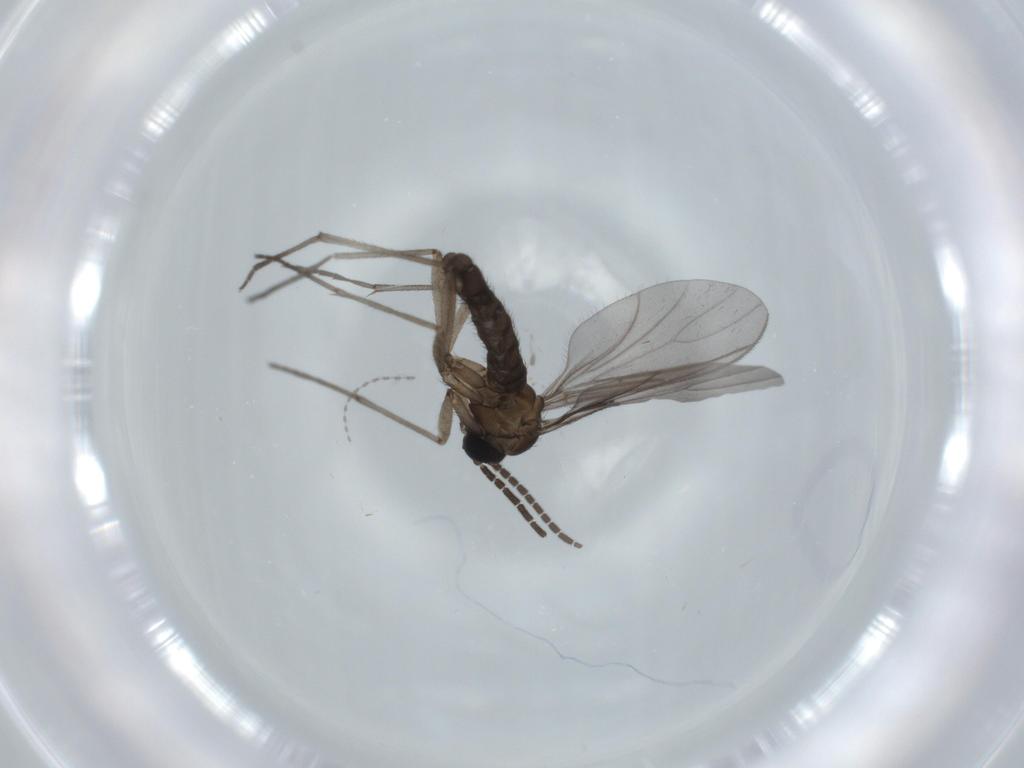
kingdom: Animalia
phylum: Arthropoda
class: Insecta
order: Diptera
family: Sciaridae
